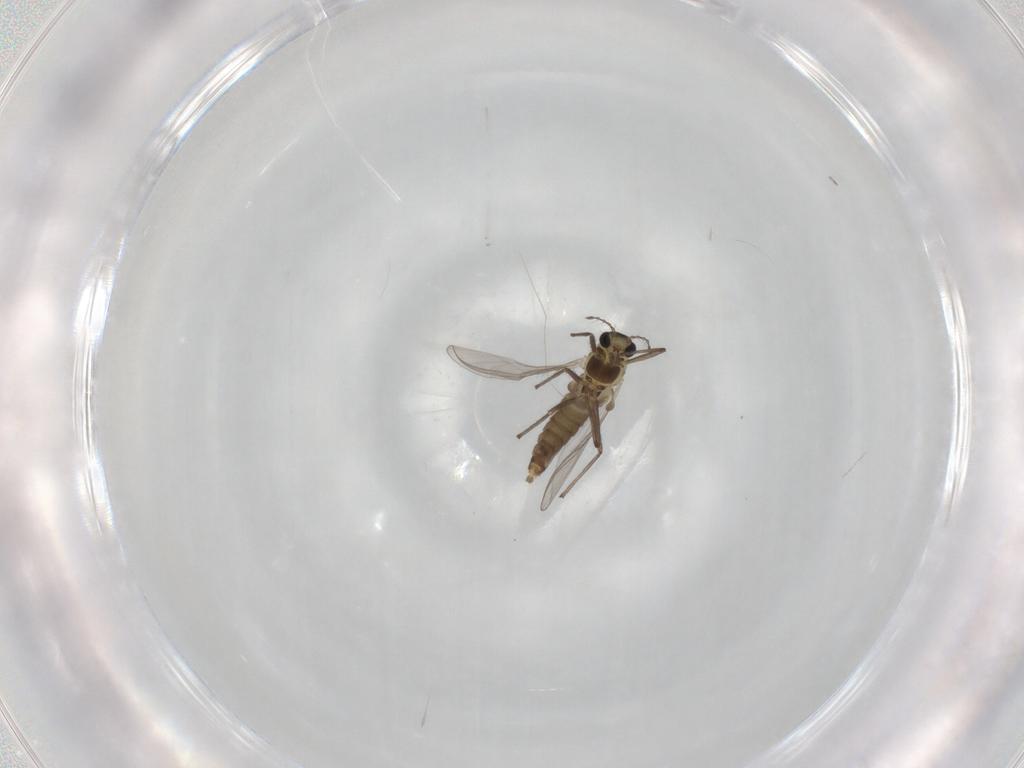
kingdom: Animalia
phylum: Arthropoda
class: Insecta
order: Diptera
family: Chironomidae
